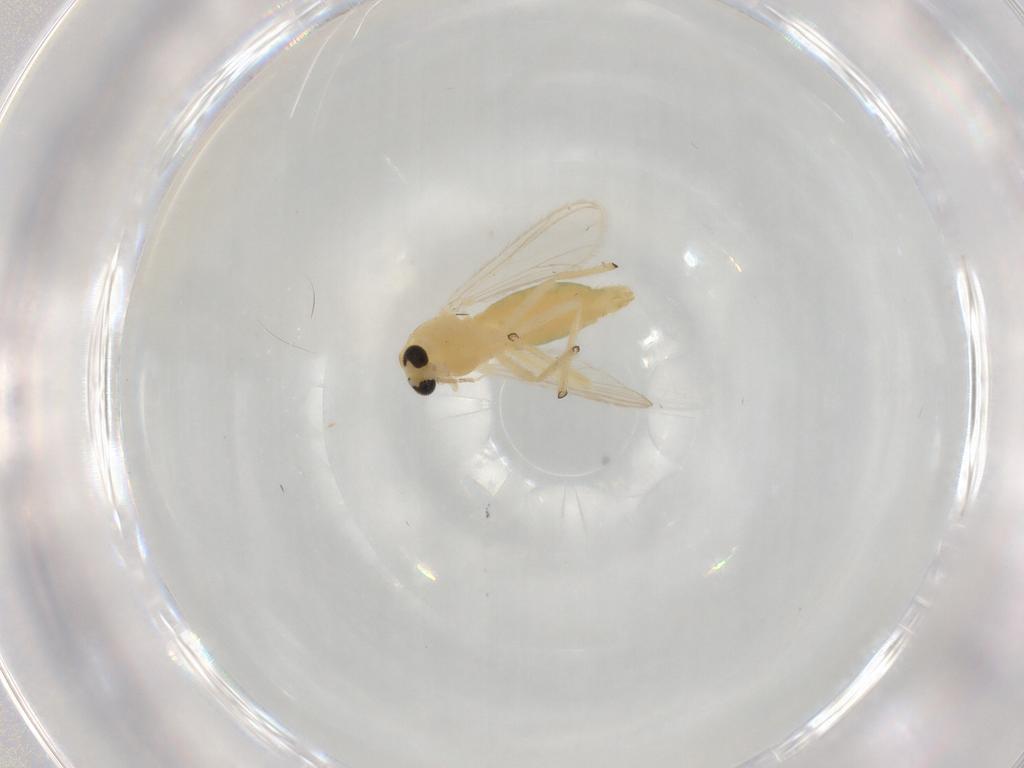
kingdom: Animalia
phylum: Arthropoda
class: Insecta
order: Diptera
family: Chironomidae
